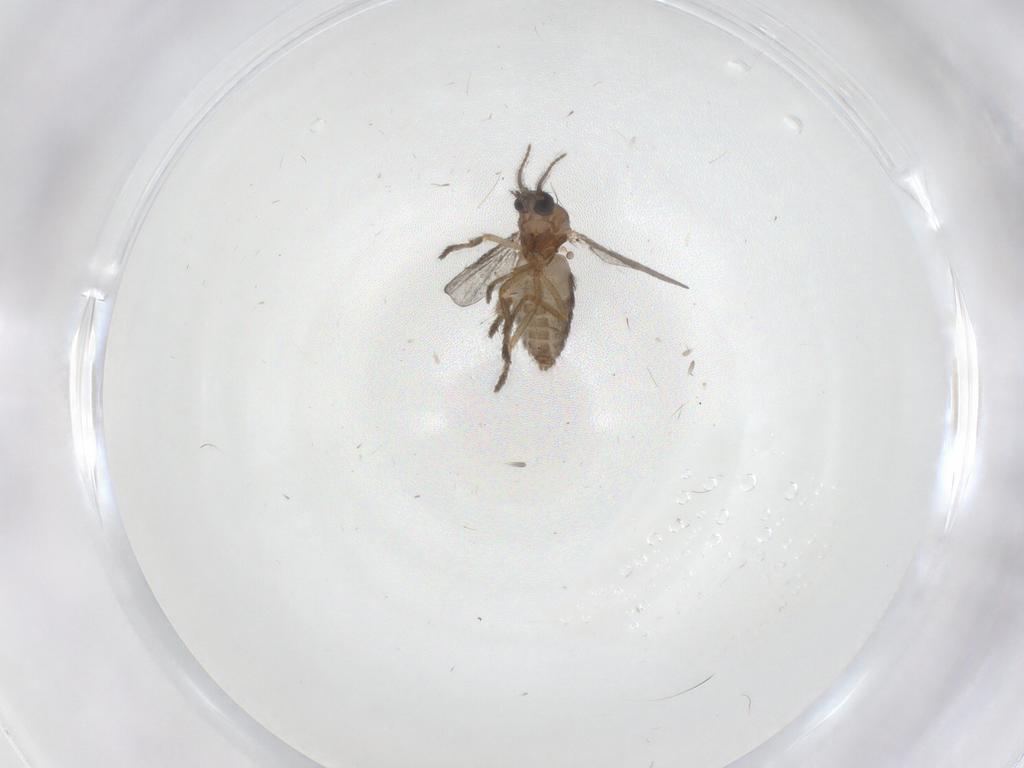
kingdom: Animalia
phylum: Arthropoda
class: Insecta
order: Diptera
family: Ceratopogonidae
